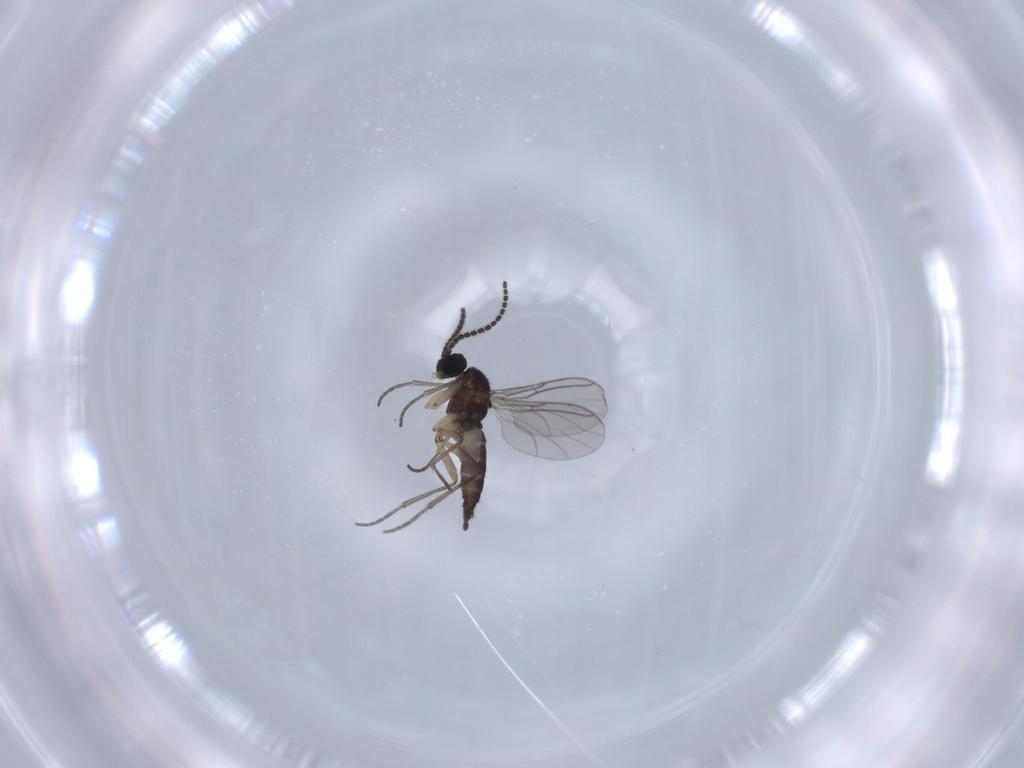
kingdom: Animalia
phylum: Arthropoda
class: Insecta
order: Diptera
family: Sciaridae
